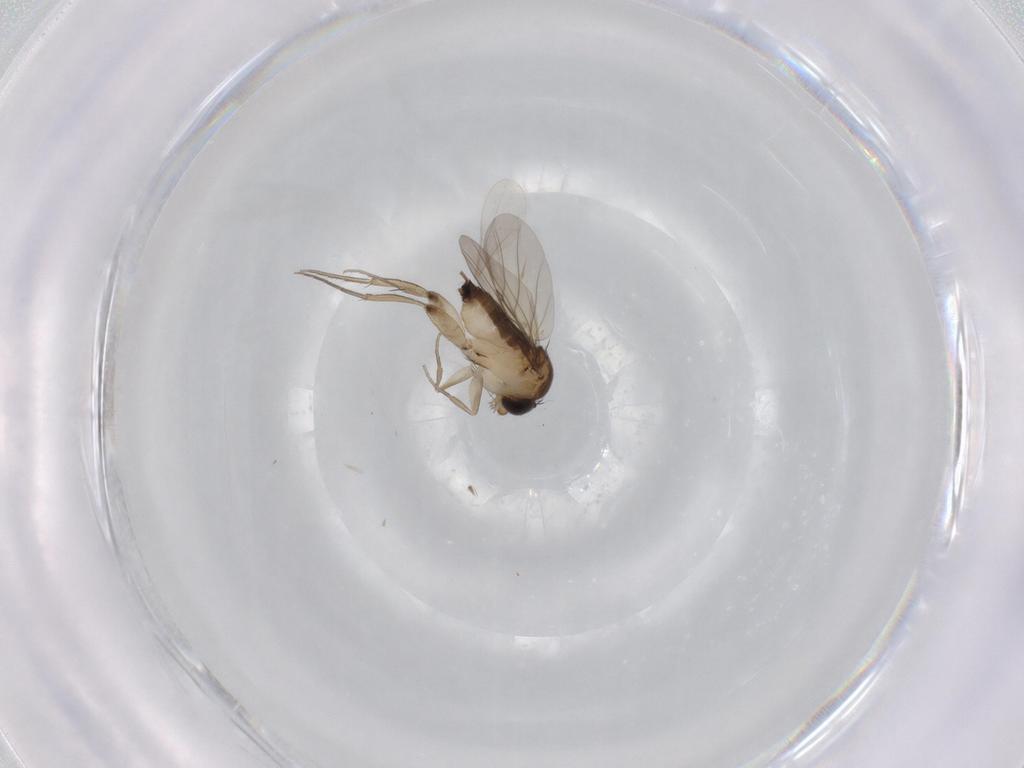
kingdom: Animalia
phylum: Arthropoda
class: Insecta
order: Diptera
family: Phoridae
